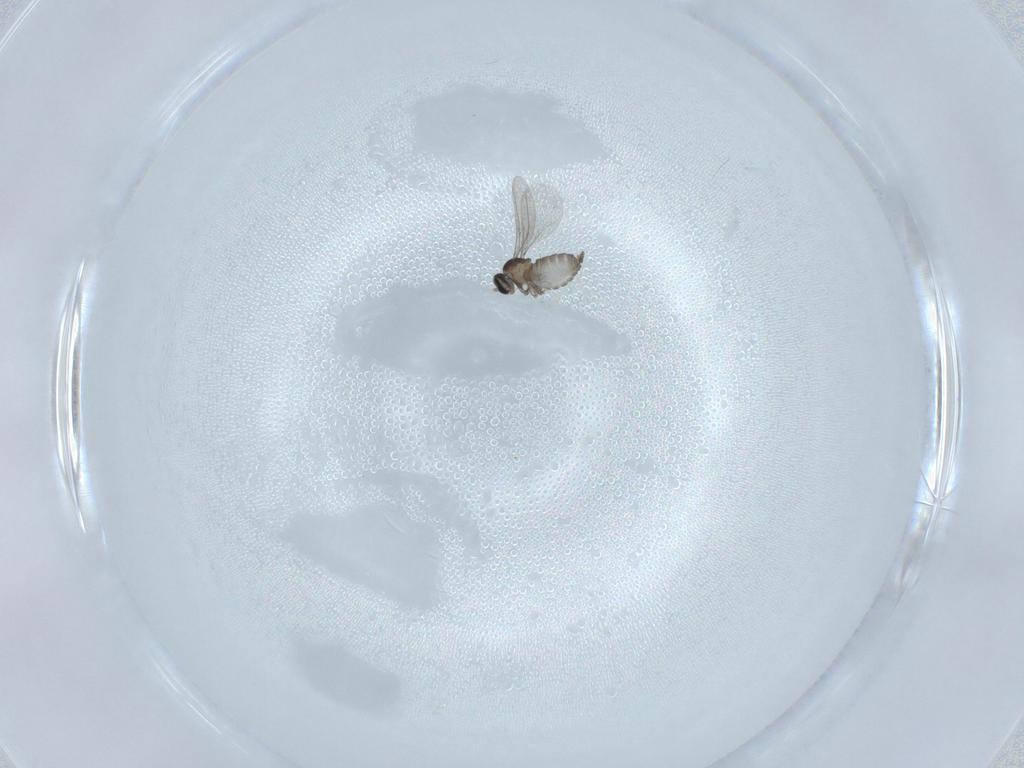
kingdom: Animalia
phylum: Arthropoda
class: Insecta
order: Diptera
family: Cecidomyiidae
